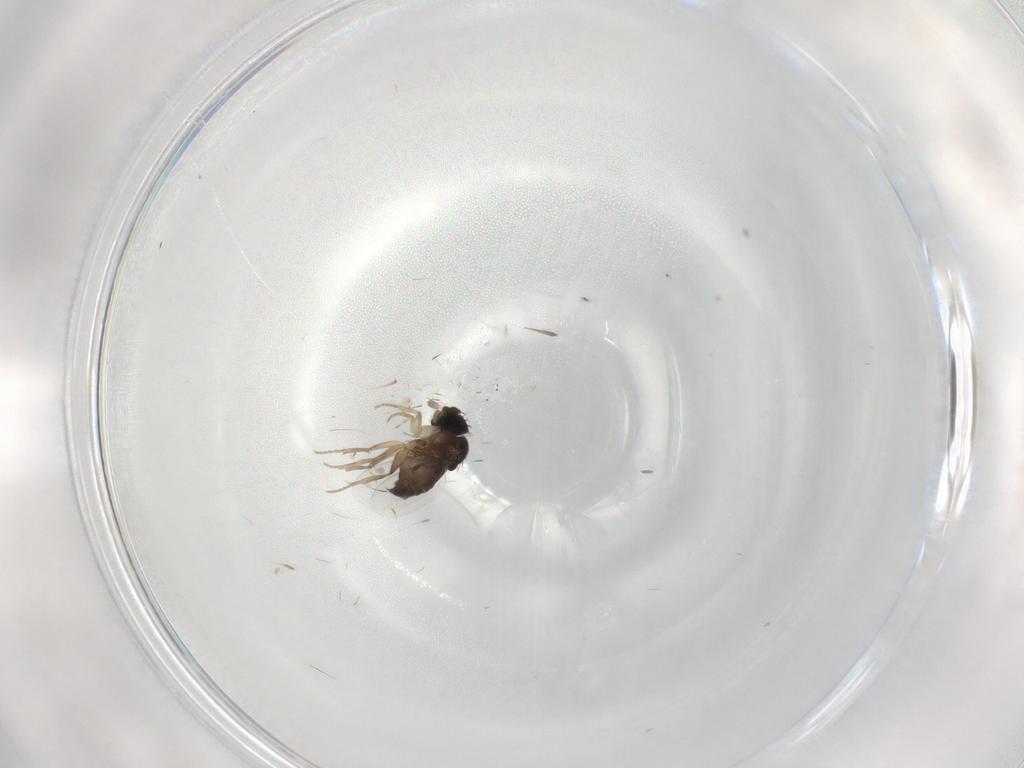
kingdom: Animalia
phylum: Arthropoda
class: Insecta
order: Diptera
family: Phoridae
